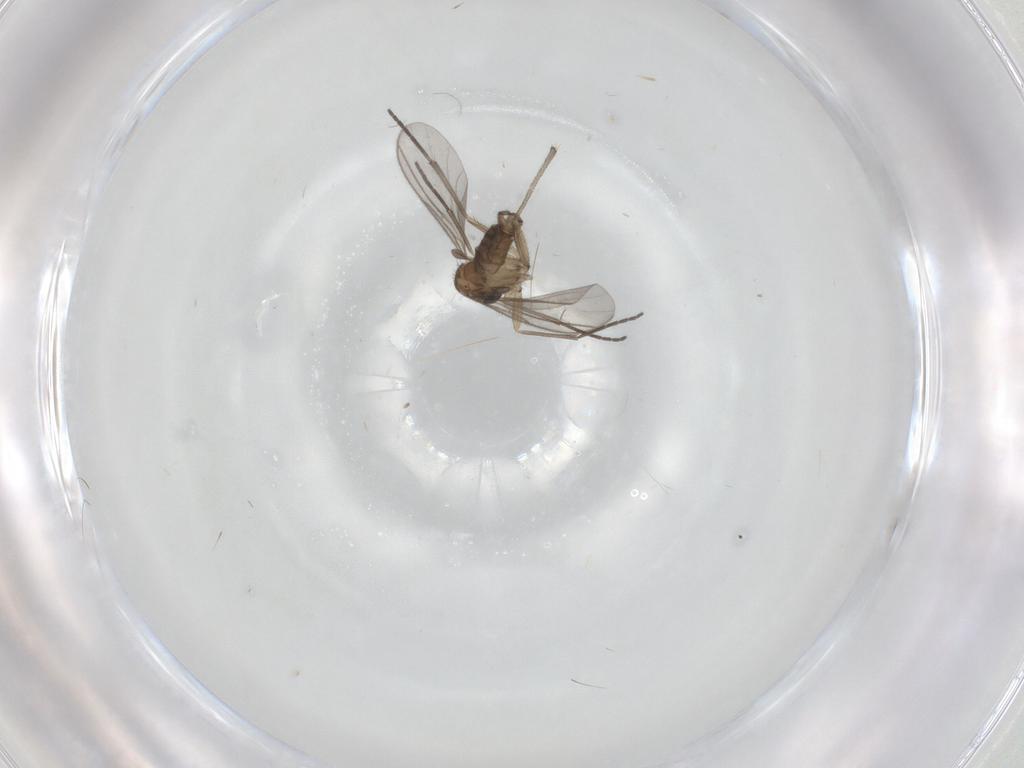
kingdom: Animalia
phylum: Arthropoda
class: Insecta
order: Diptera
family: Sciaridae
